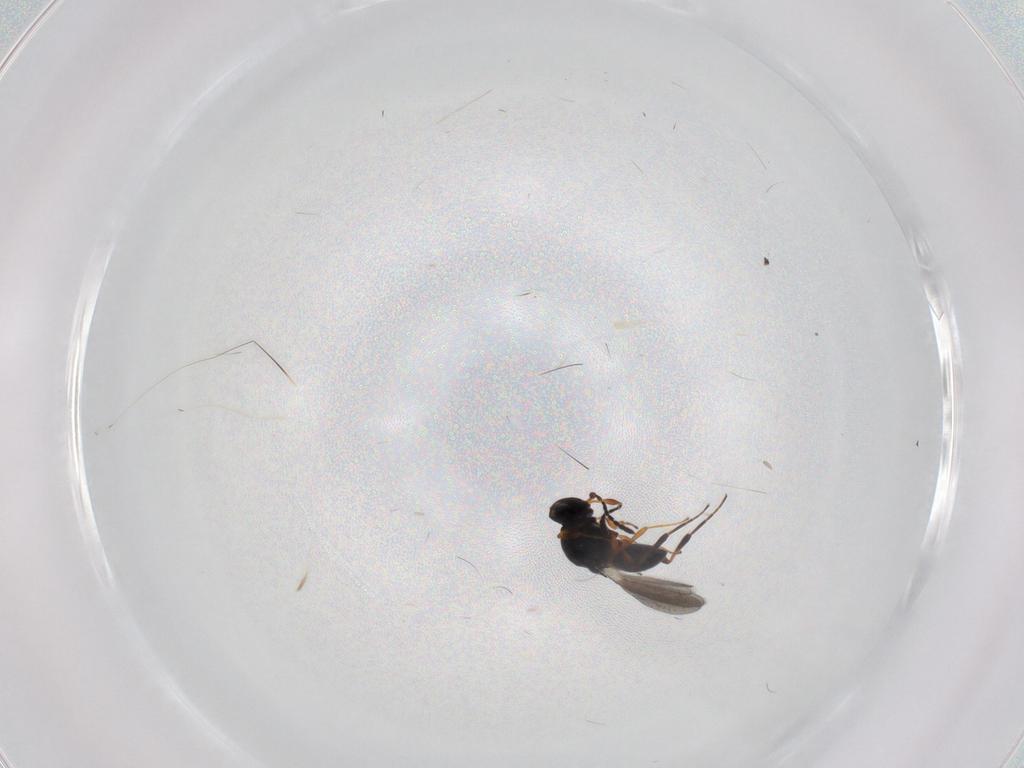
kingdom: Animalia
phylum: Arthropoda
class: Insecta
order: Hymenoptera
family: Platygastridae
